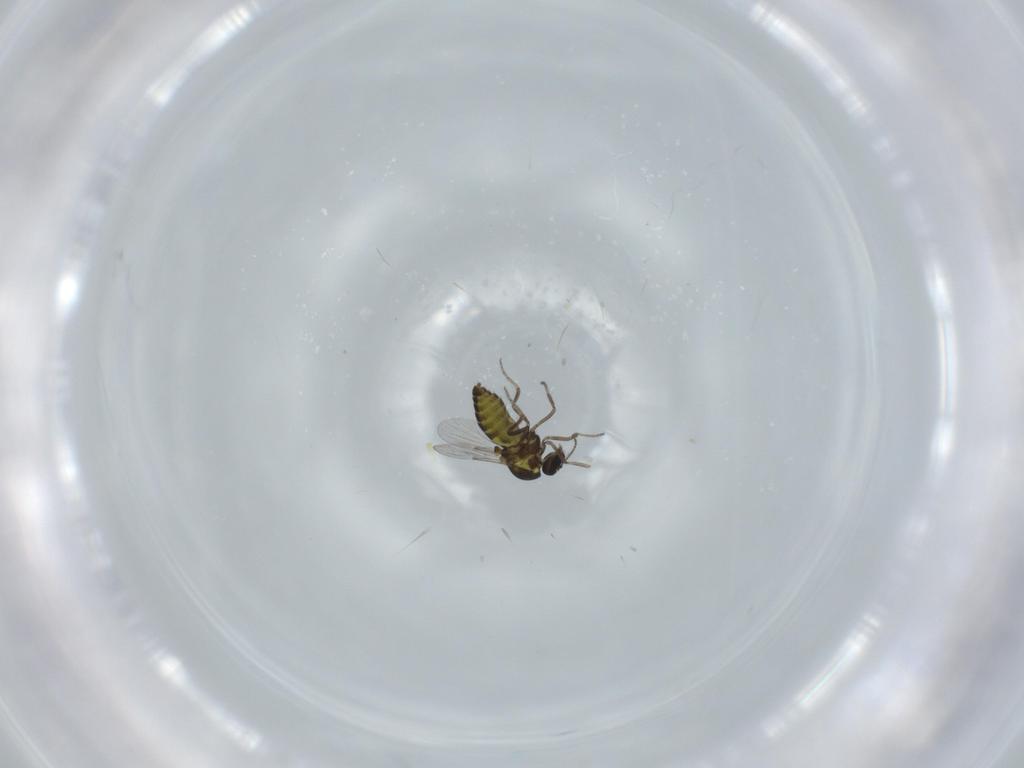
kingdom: Animalia
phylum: Arthropoda
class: Insecta
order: Diptera
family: Ceratopogonidae
